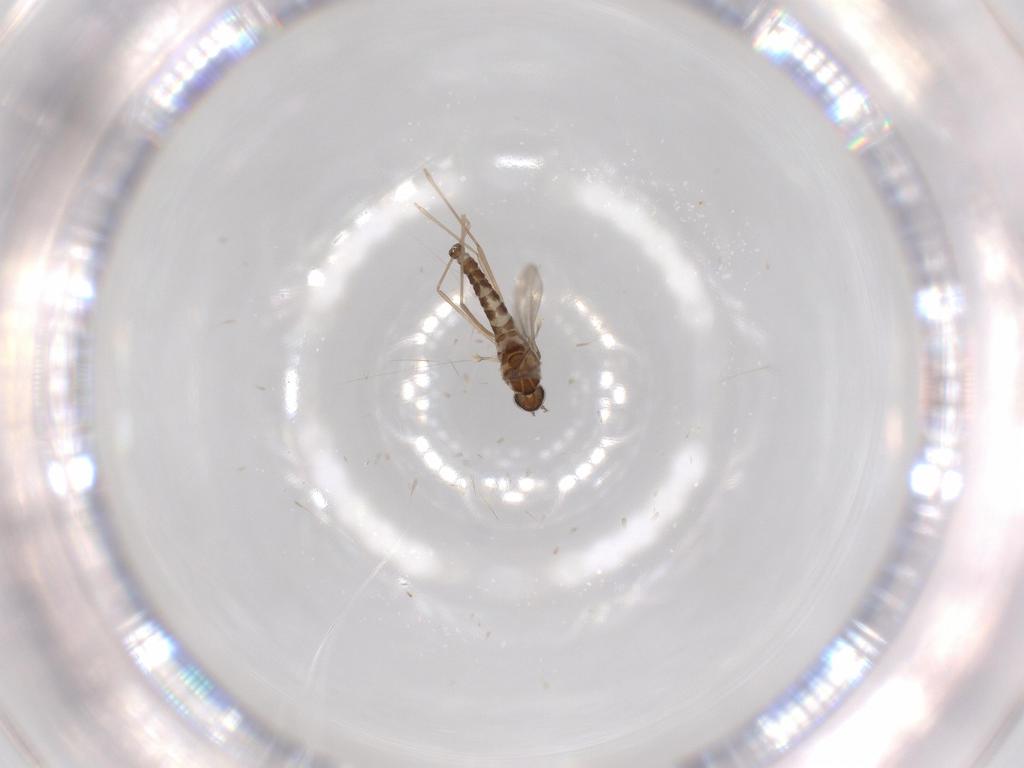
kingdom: Animalia
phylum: Arthropoda
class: Insecta
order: Diptera
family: Cecidomyiidae
